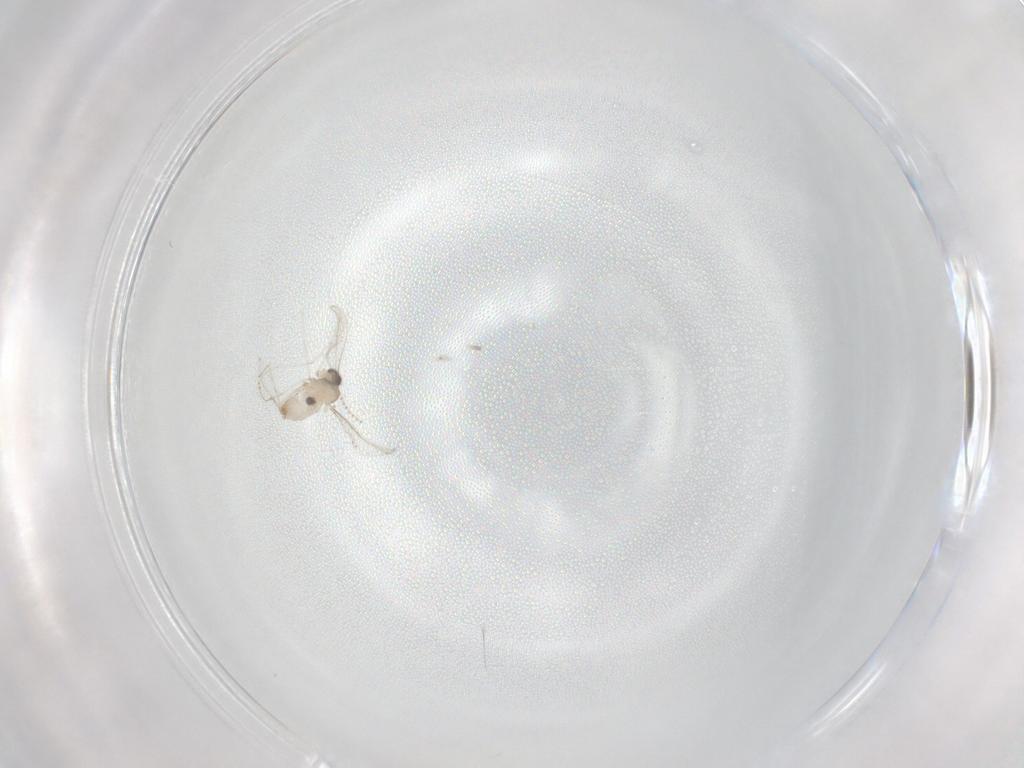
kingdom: Animalia
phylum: Arthropoda
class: Insecta
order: Diptera
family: Cecidomyiidae
